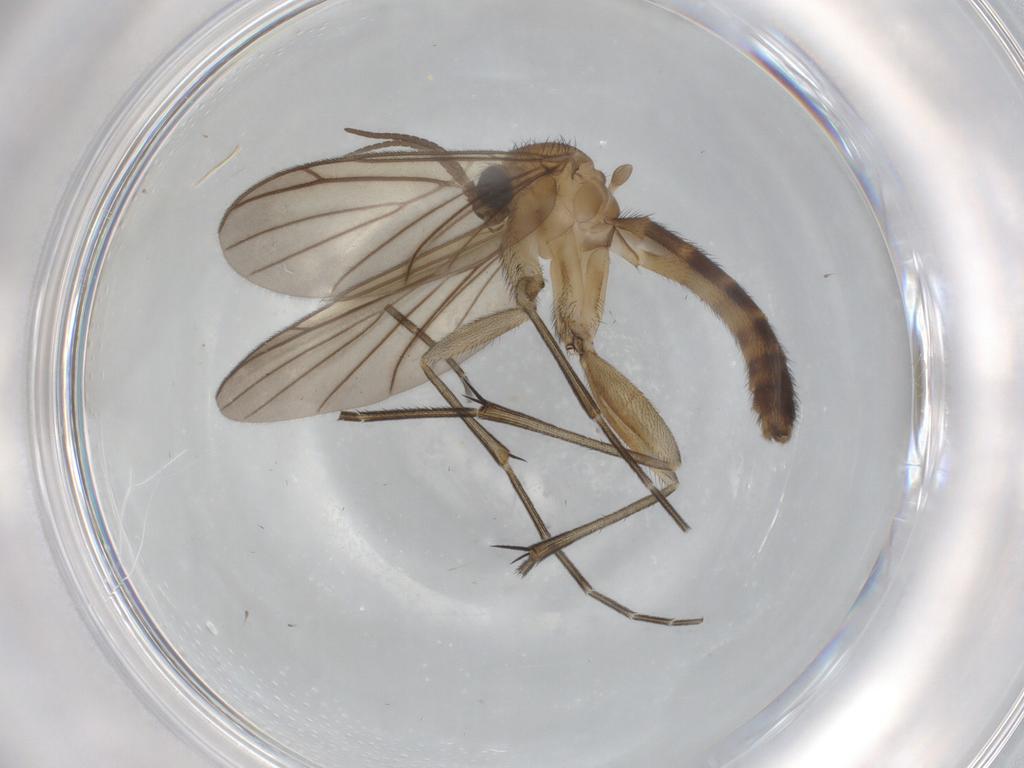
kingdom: Animalia
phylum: Arthropoda
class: Insecta
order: Diptera
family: Keroplatidae
